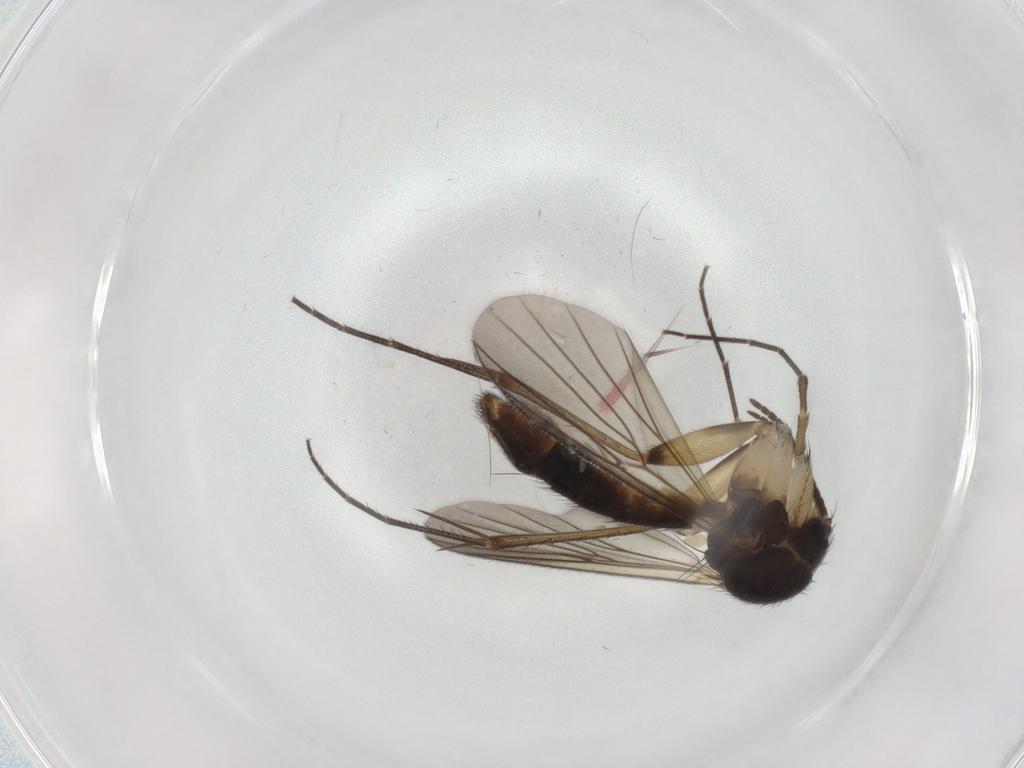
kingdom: Animalia
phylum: Arthropoda
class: Insecta
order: Diptera
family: Mycetophilidae
